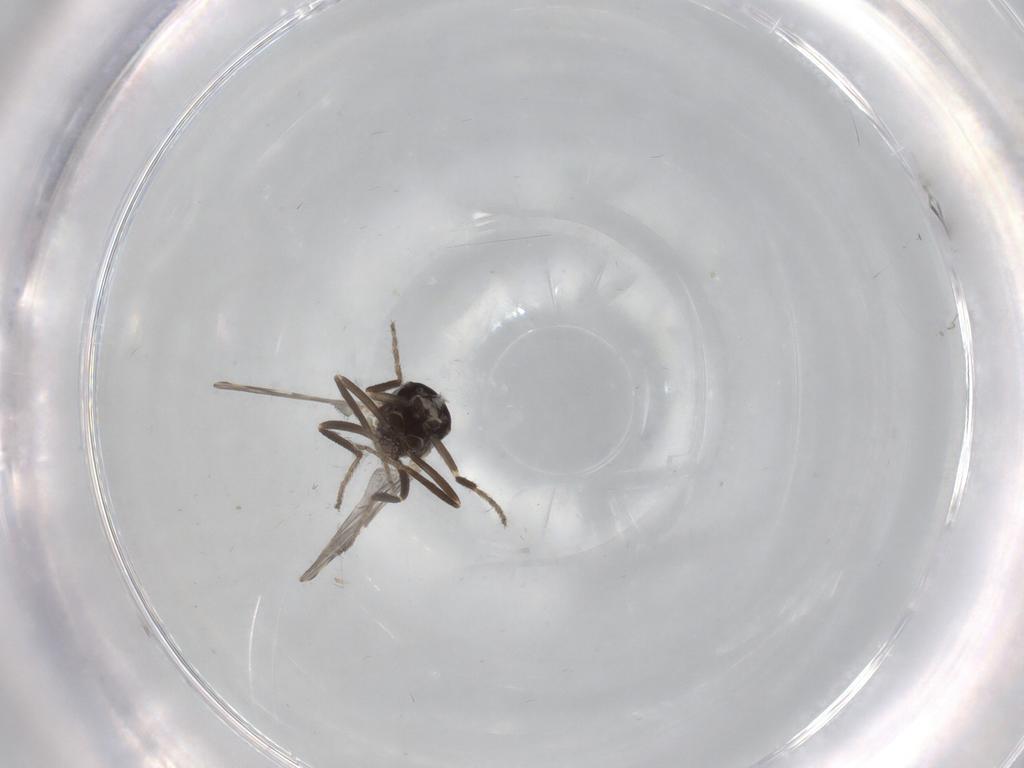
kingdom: Animalia
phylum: Arthropoda
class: Insecta
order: Diptera
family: Ceratopogonidae
